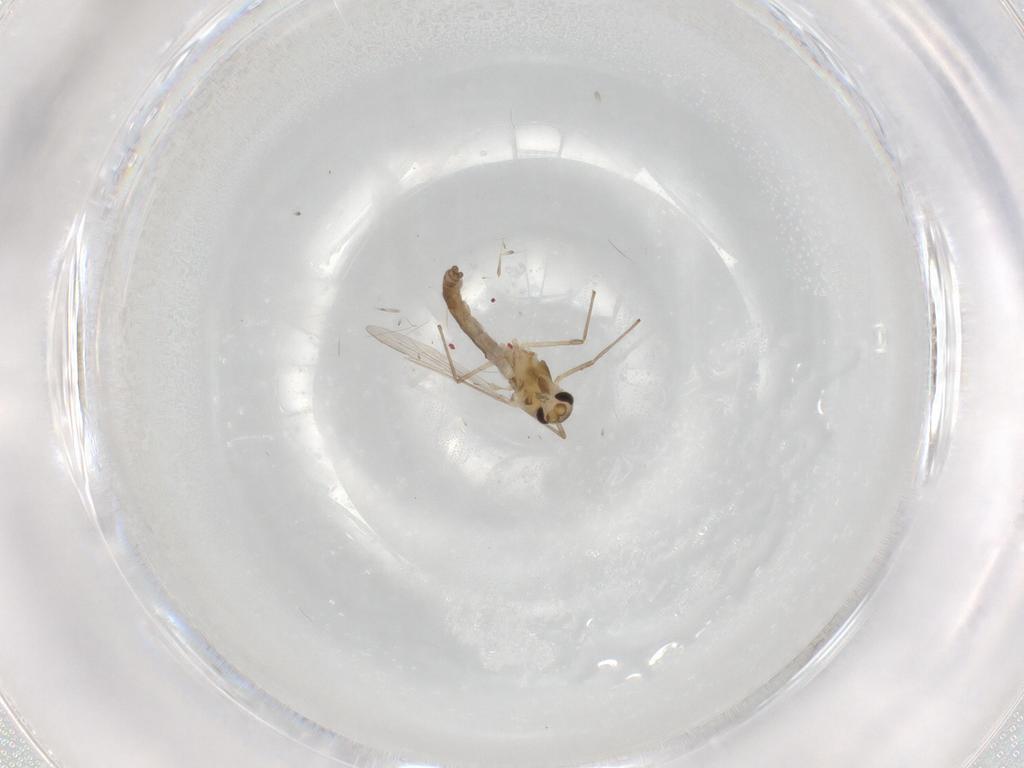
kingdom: Animalia
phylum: Arthropoda
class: Insecta
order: Diptera
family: Chironomidae
